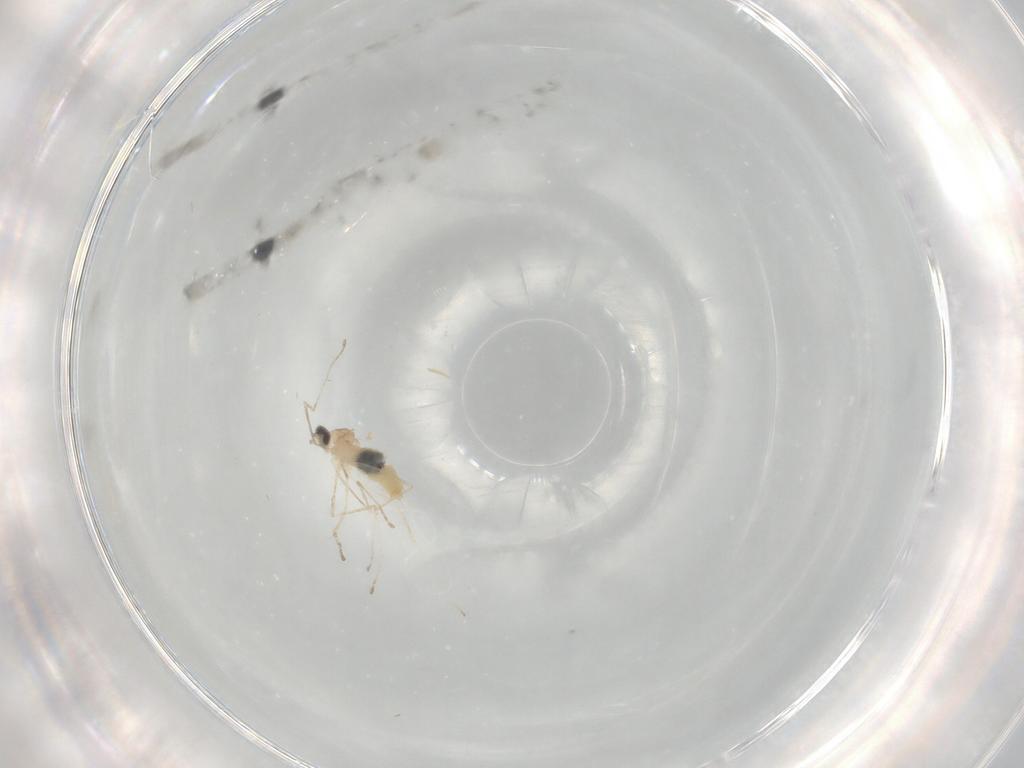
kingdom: Animalia
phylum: Arthropoda
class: Insecta
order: Diptera
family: Cecidomyiidae
